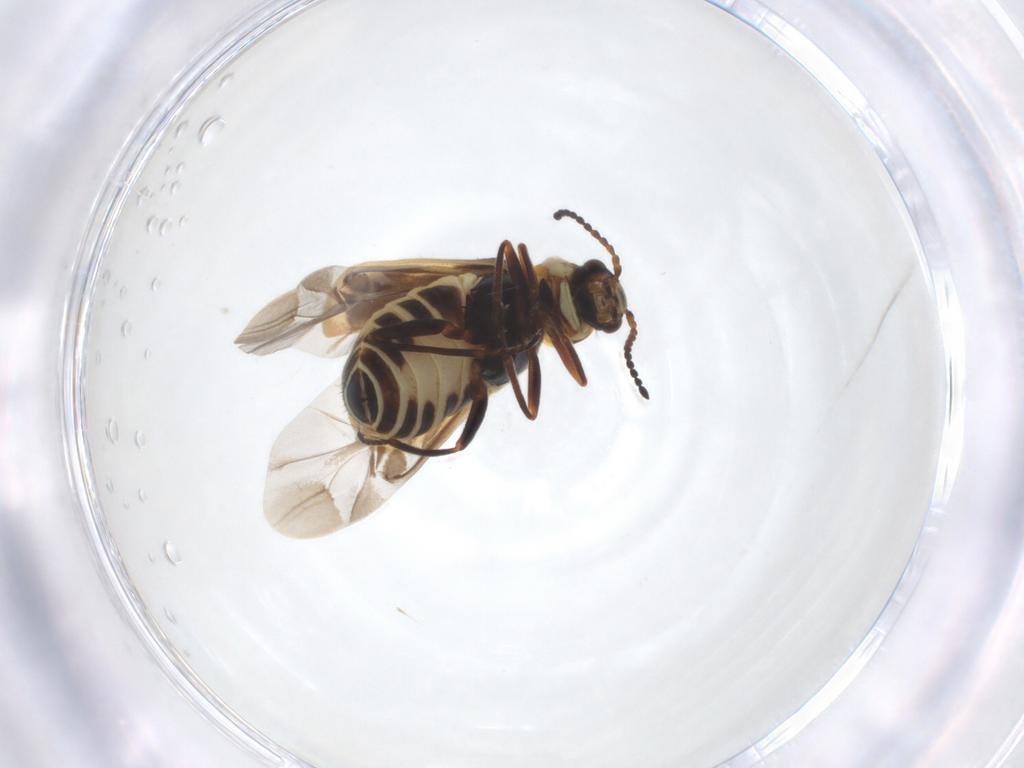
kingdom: Animalia
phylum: Arthropoda
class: Insecta
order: Coleoptera
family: Melyridae
